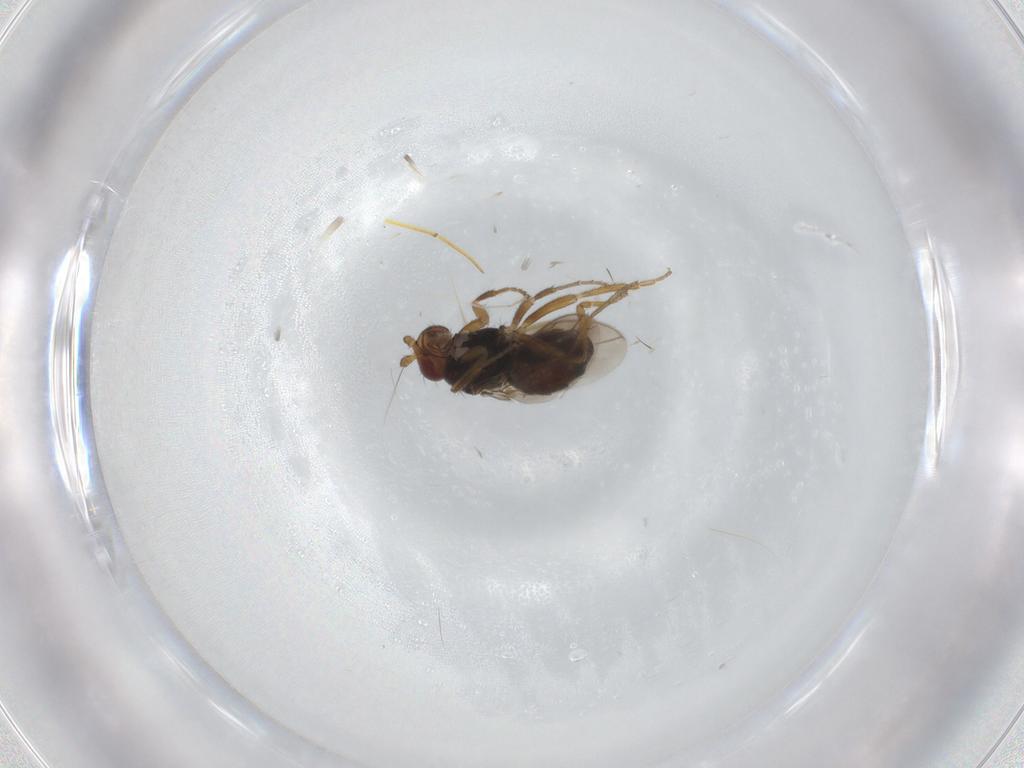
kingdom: Animalia
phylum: Arthropoda
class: Insecta
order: Diptera
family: Sphaeroceridae
